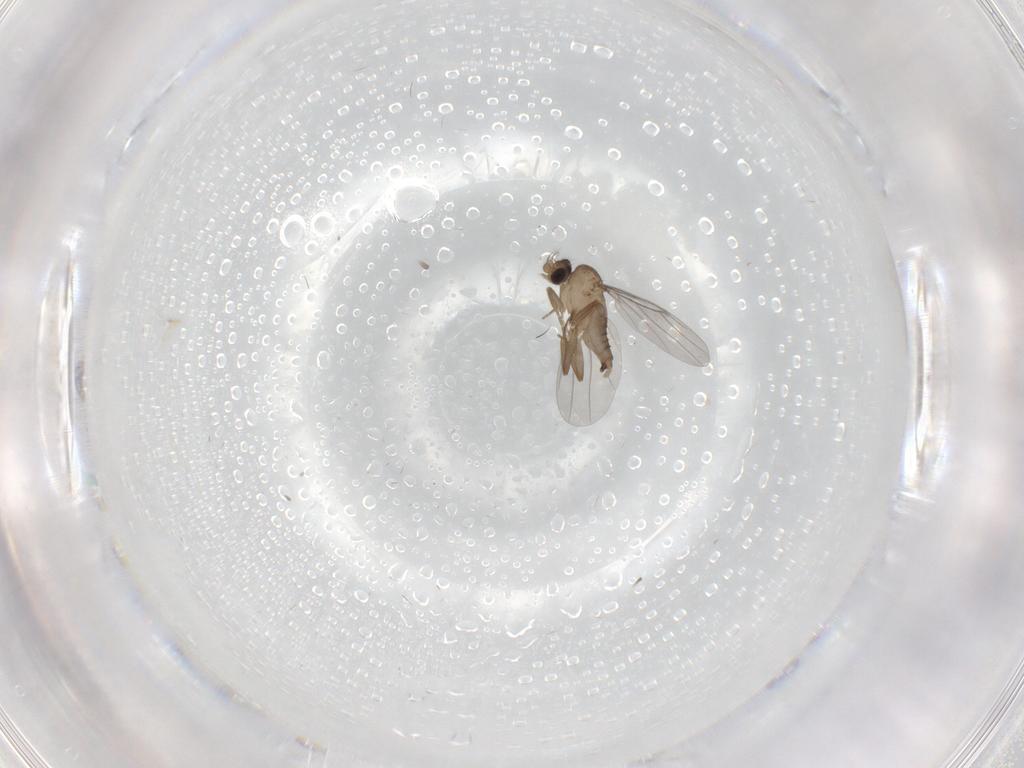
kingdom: Animalia
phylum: Arthropoda
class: Insecta
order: Diptera
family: Cecidomyiidae
